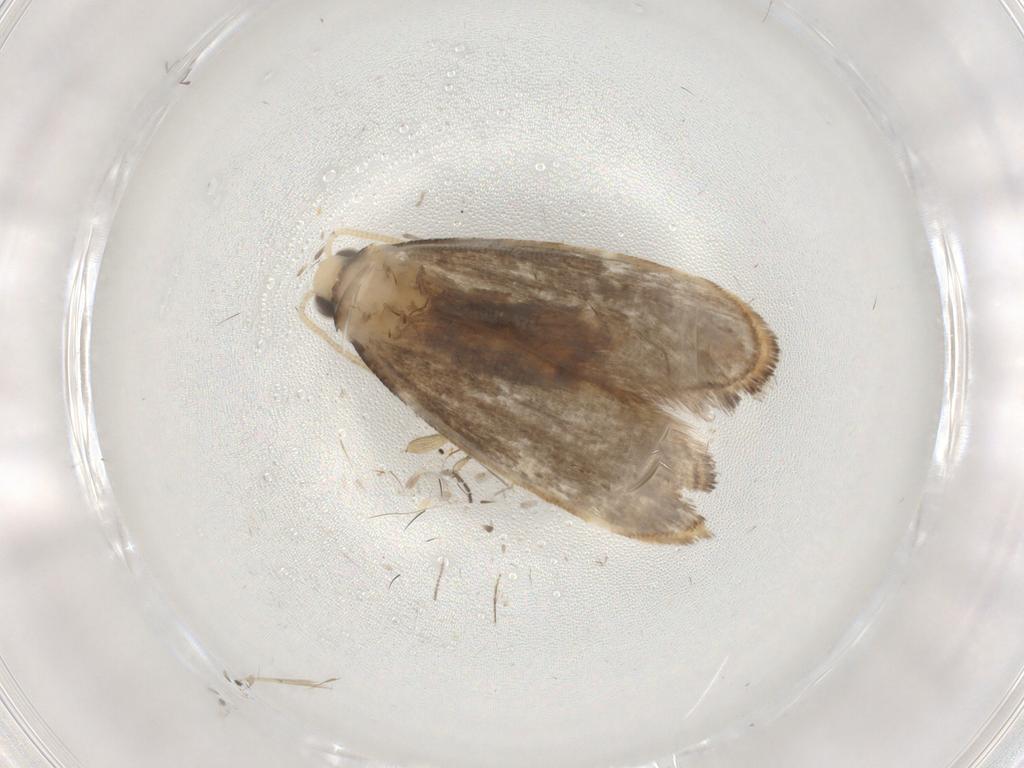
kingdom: Animalia
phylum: Arthropoda
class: Insecta
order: Lepidoptera
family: Dryadaulidae
